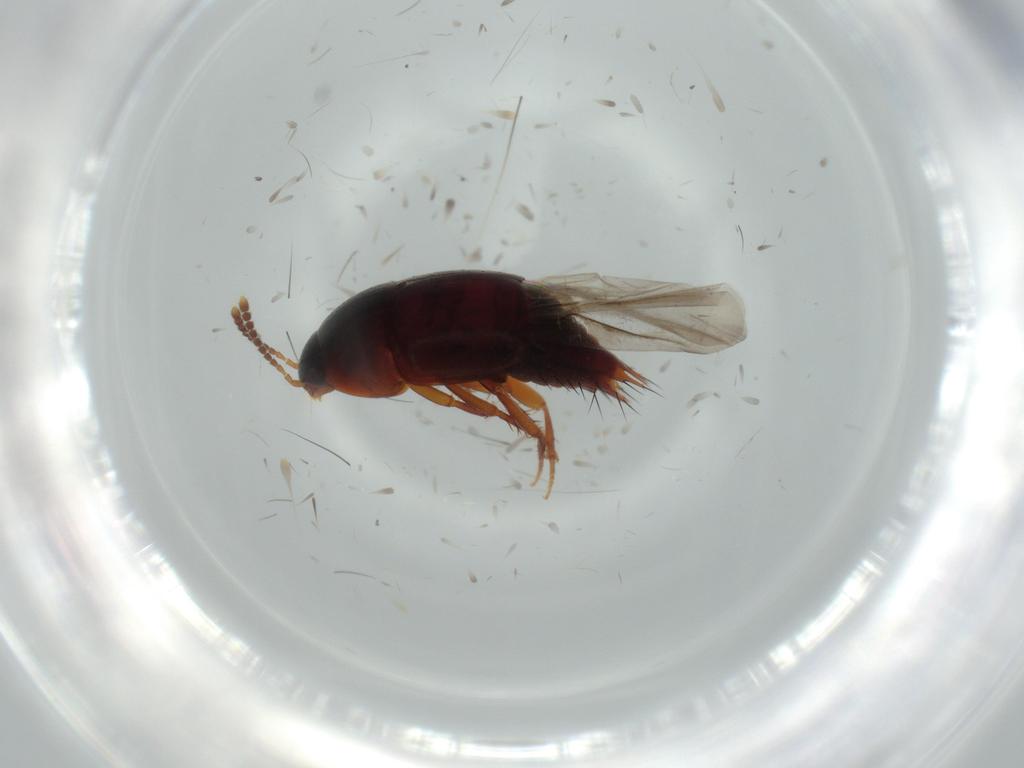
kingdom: Animalia
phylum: Arthropoda
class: Insecta
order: Coleoptera
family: Staphylinidae
